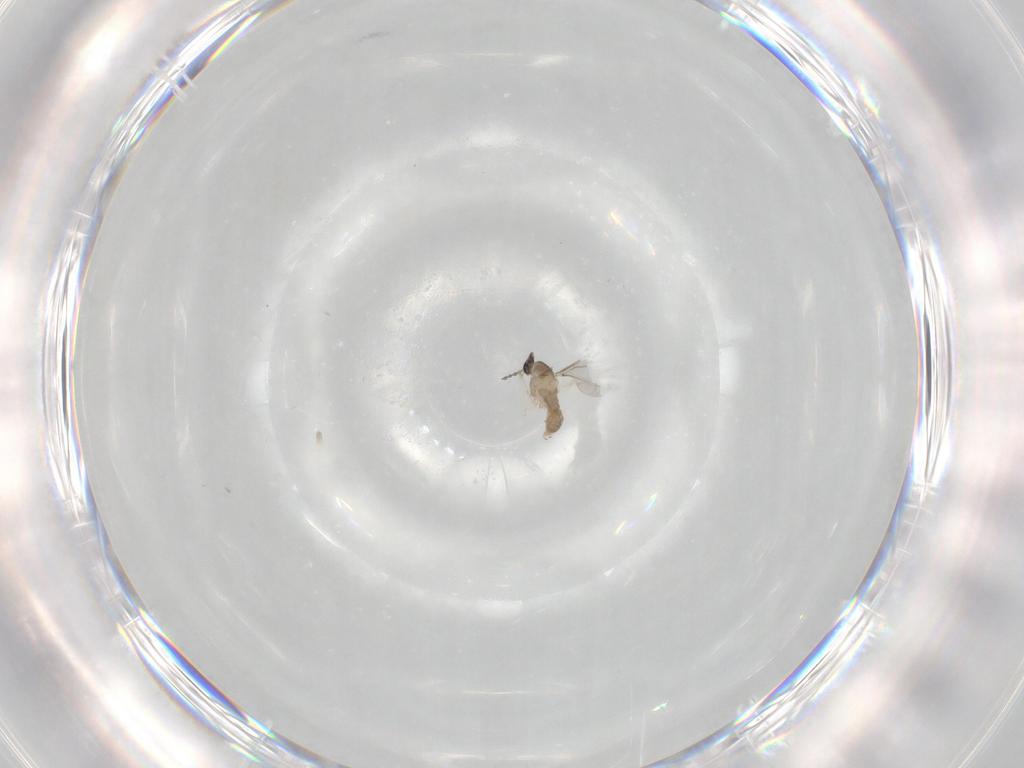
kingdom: Animalia
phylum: Arthropoda
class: Insecta
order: Diptera
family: Cecidomyiidae
